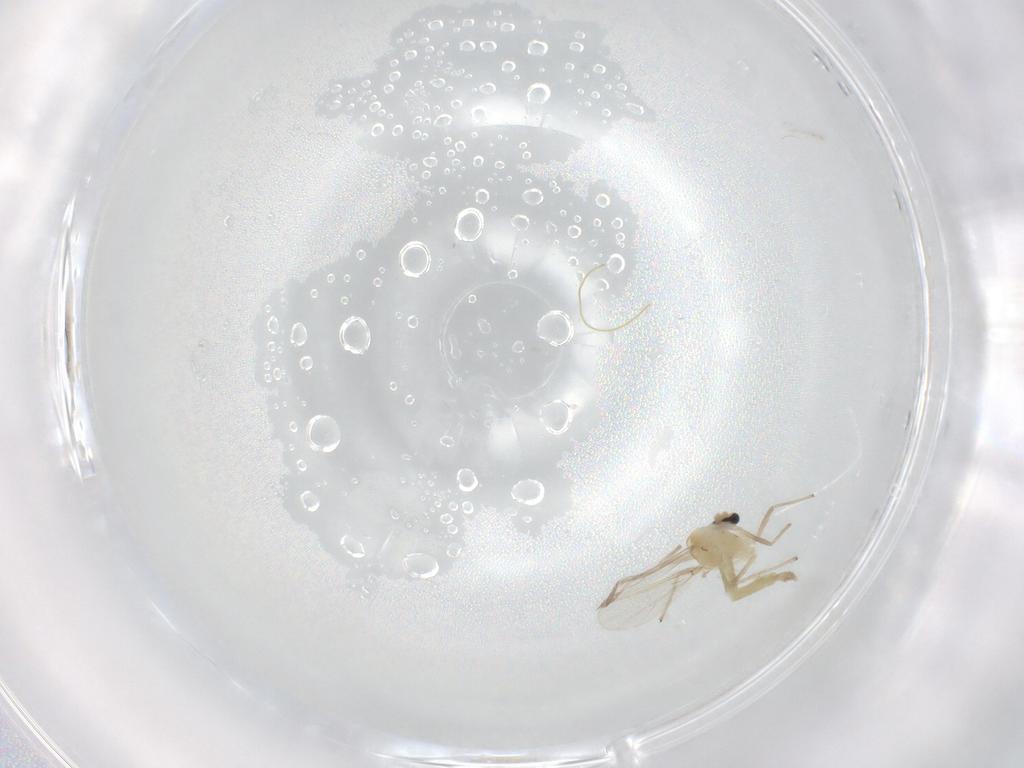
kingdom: Animalia
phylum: Arthropoda
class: Insecta
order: Diptera
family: Chironomidae
